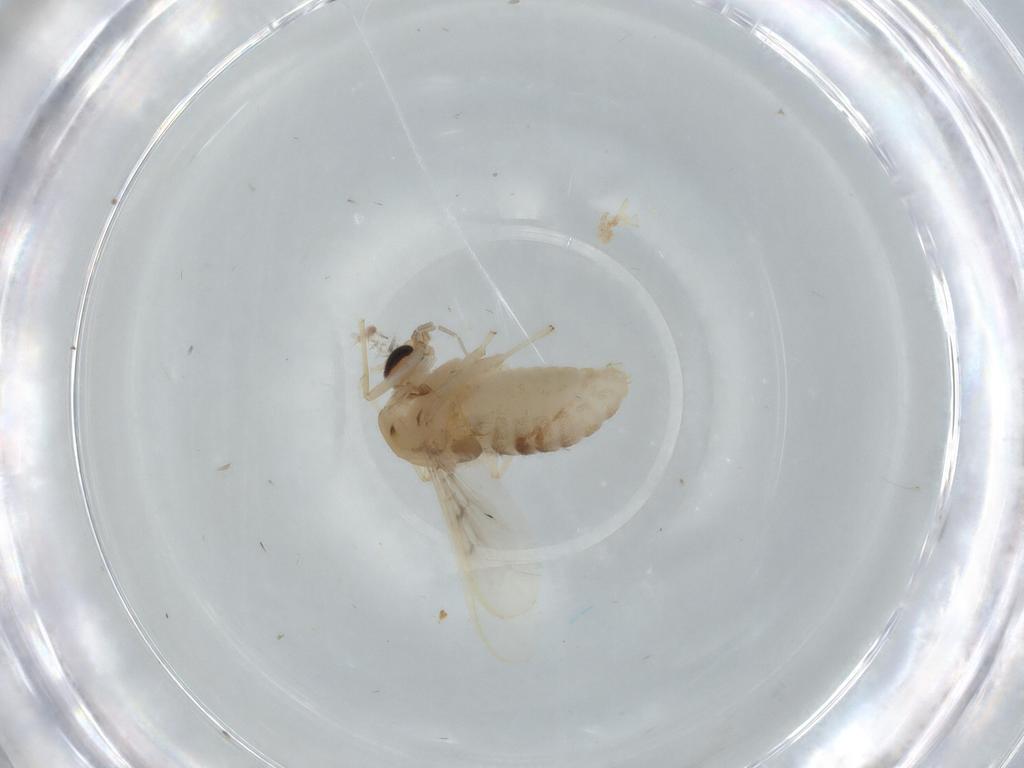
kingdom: Animalia
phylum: Arthropoda
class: Insecta
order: Diptera
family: Chironomidae
